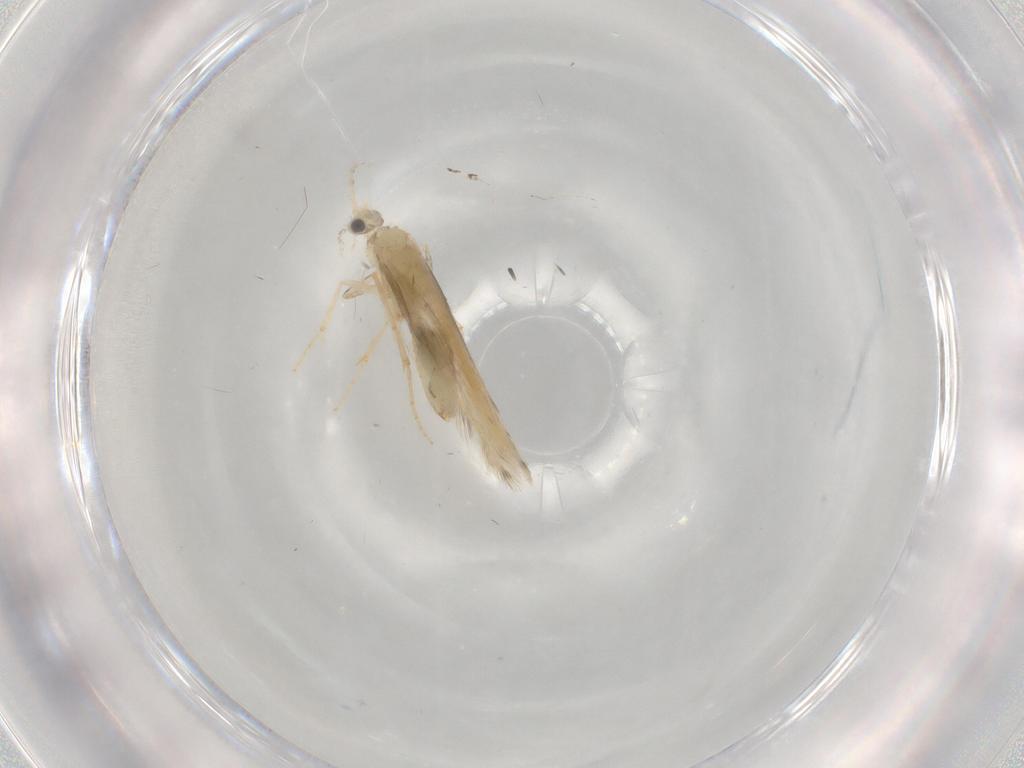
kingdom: Animalia
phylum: Arthropoda
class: Insecta
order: Trichoptera
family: Hydroptilidae
